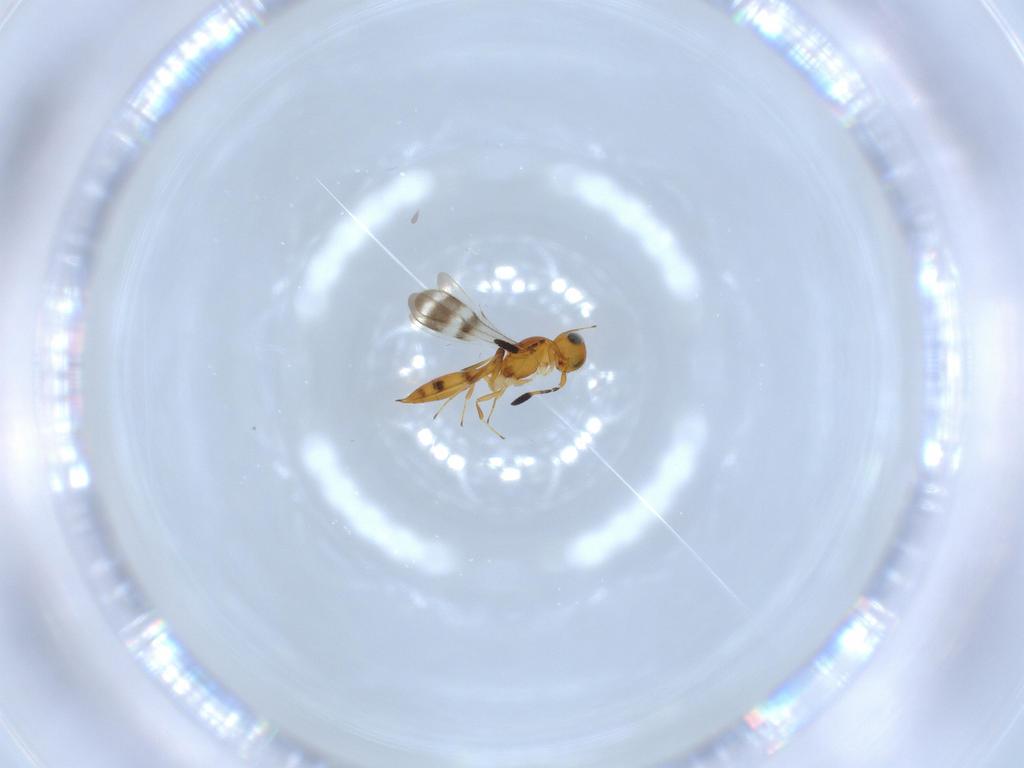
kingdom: Animalia
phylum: Arthropoda
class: Insecta
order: Hymenoptera
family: Scelionidae
